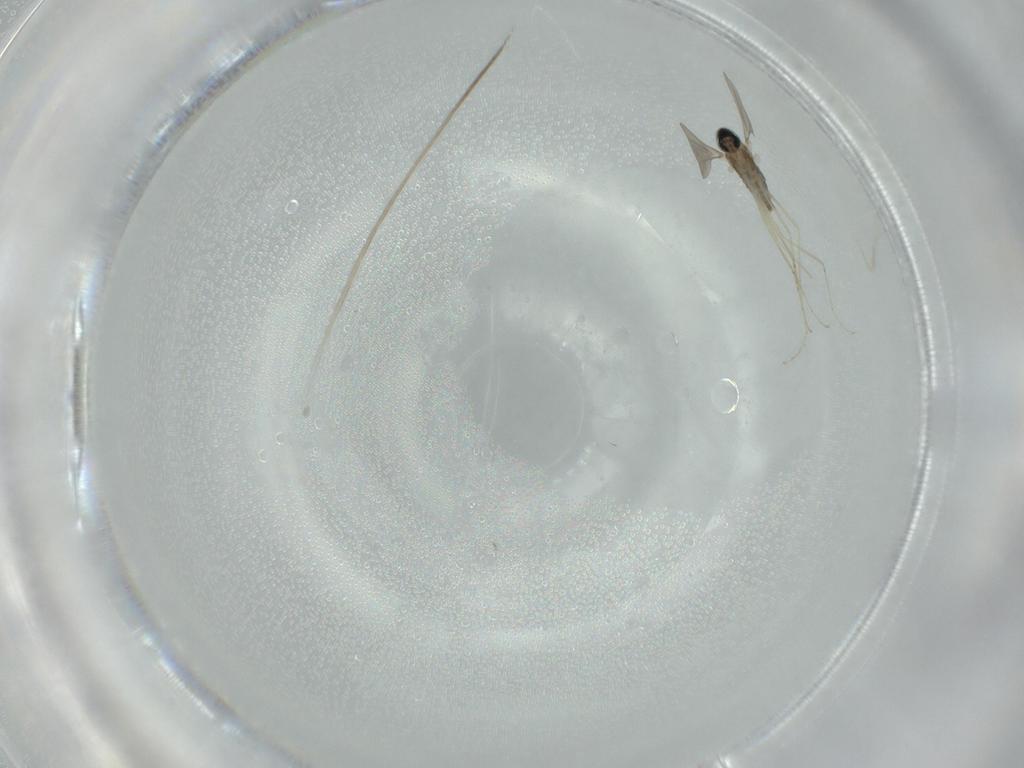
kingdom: Animalia
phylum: Arthropoda
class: Insecta
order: Diptera
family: Cecidomyiidae
